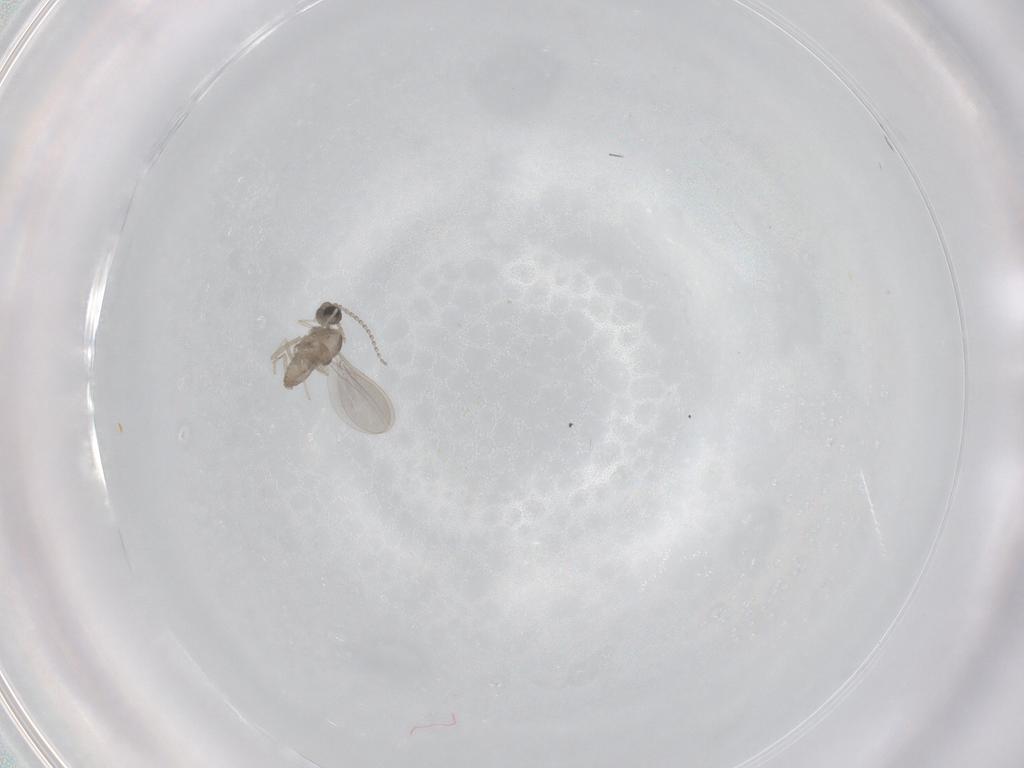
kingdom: Animalia
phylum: Arthropoda
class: Insecta
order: Diptera
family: Cecidomyiidae
